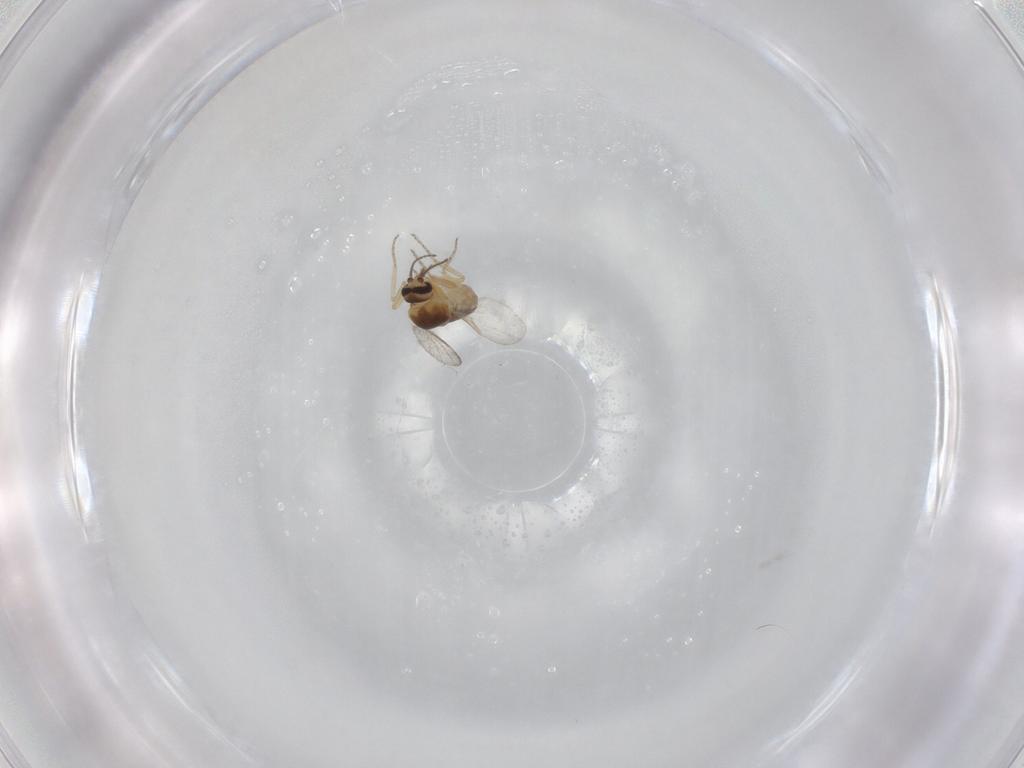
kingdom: Animalia
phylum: Arthropoda
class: Insecta
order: Diptera
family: Ceratopogonidae
